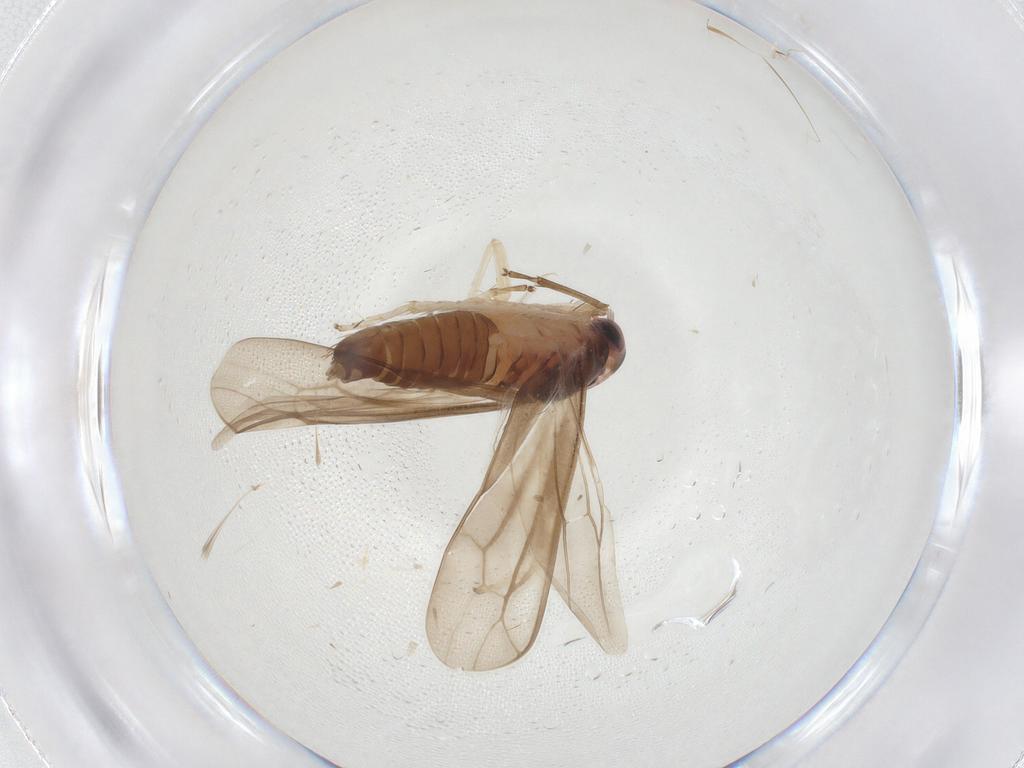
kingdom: Animalia
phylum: Arthropoda
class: Insecta
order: Hemiptera
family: Cicadellidae
